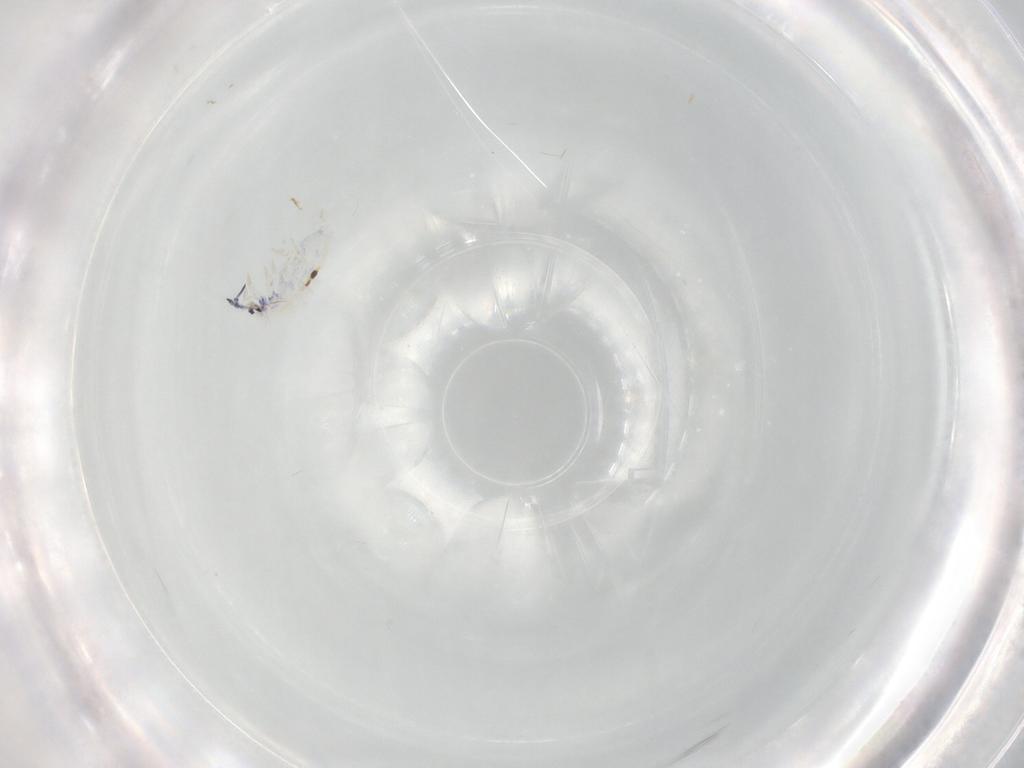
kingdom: Animalia
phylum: Arthropoda
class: Collembola
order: Entomobryomorpha
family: Entomobryidae
